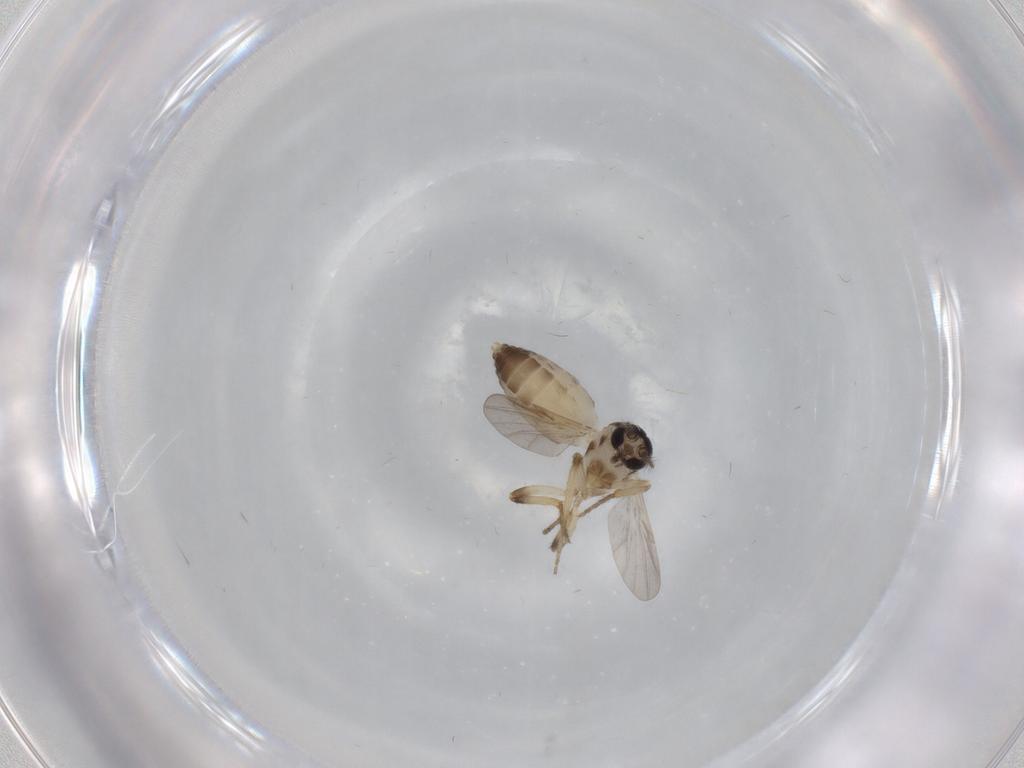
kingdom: Animalia
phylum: Arthropoda
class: Insecta
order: Diptera
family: Ceratopogonidae
